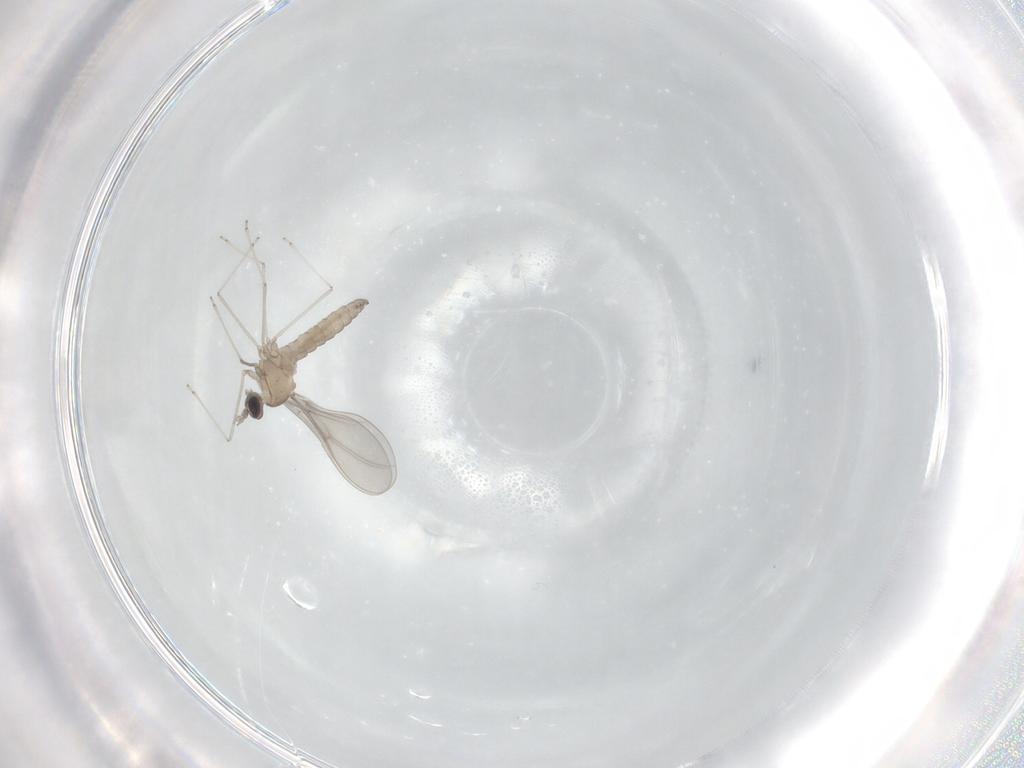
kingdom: Animalia
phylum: Arthropoda
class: Insecta
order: Diptera
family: Cecidomyiidae
